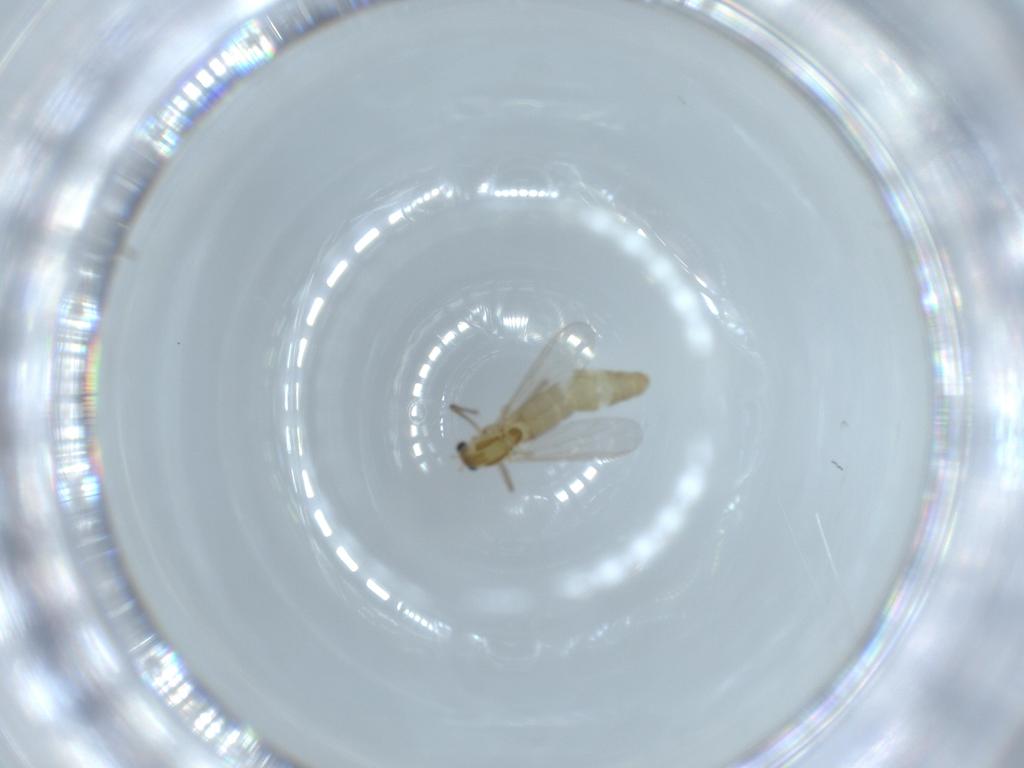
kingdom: Animalia
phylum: Arthropoda
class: Insecta
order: Diptera
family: Chironomidae
